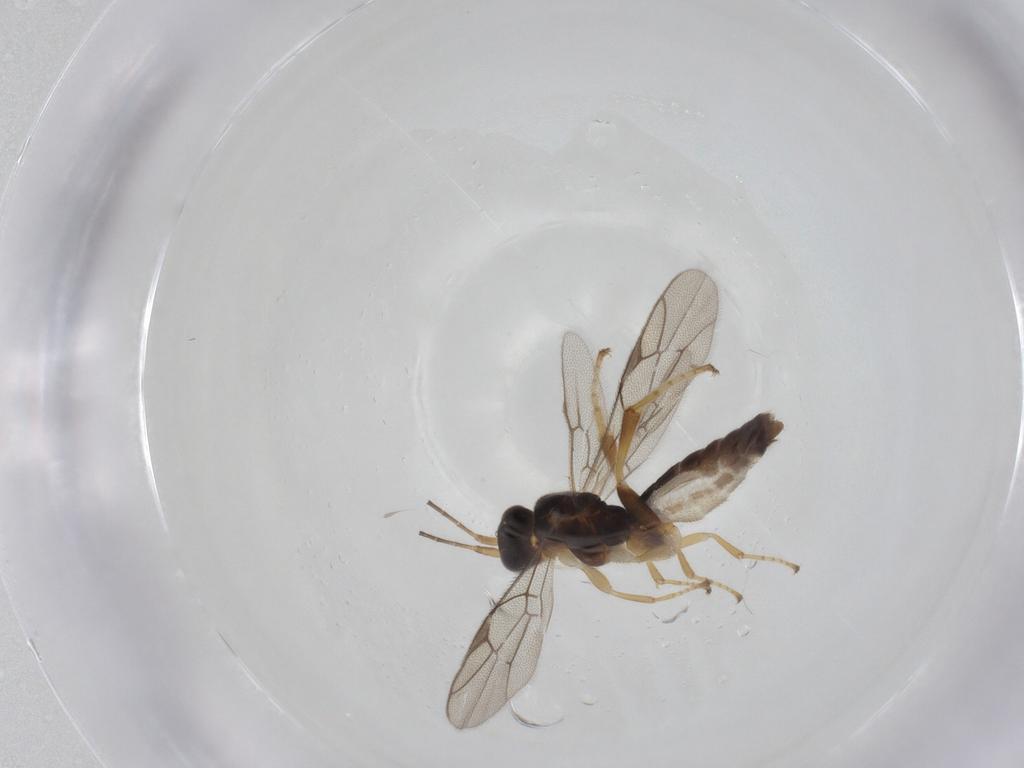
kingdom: Animalia
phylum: Arthropoda
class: Insecta
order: Hymenoptera
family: Ichneumonidae
